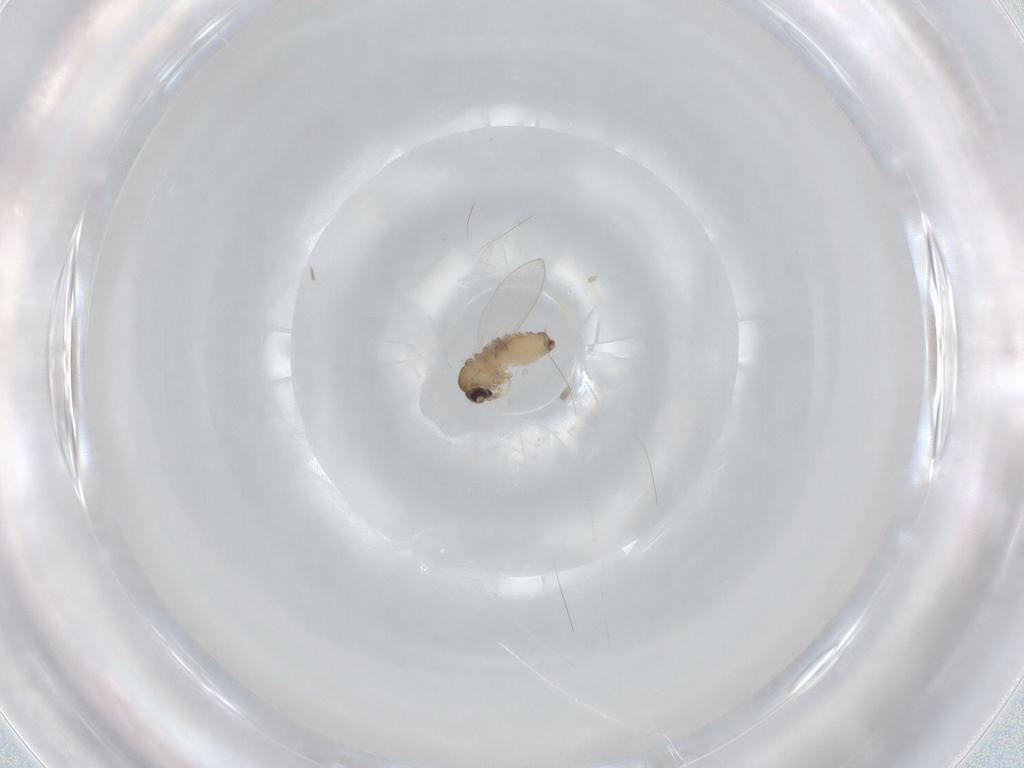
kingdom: Animalia
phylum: Arthropoda
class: Insecta
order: Diptera
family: Psychodidae
